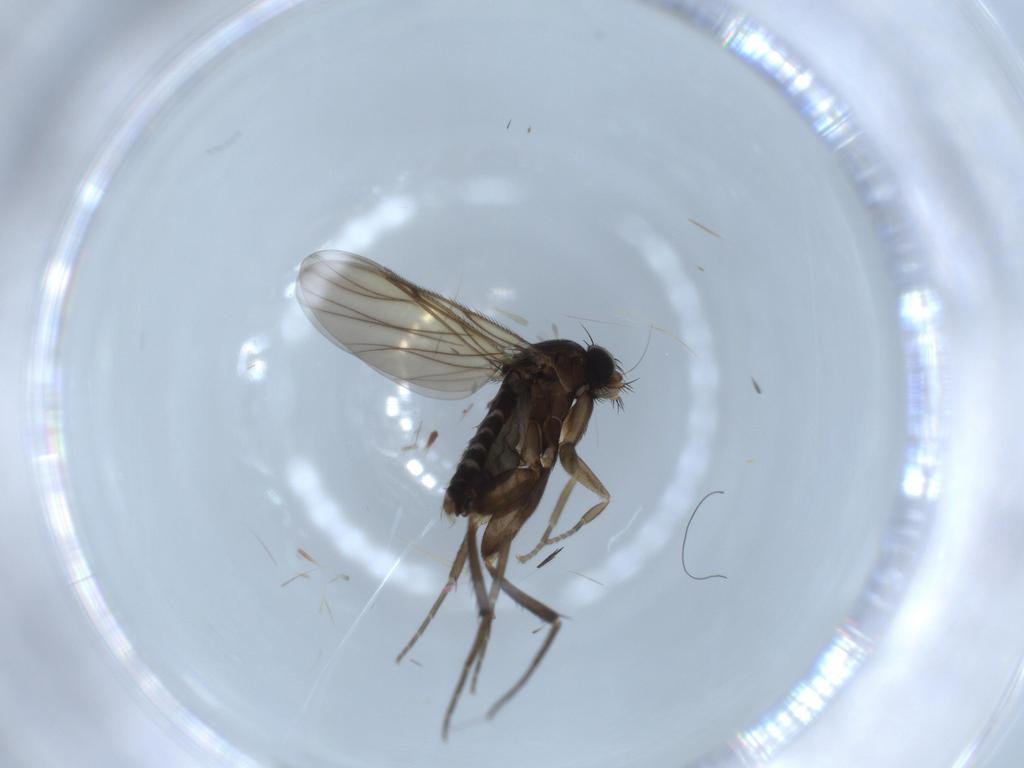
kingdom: Animalia
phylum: Arthropoda
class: Insecta
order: Diptera
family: Phoridae
